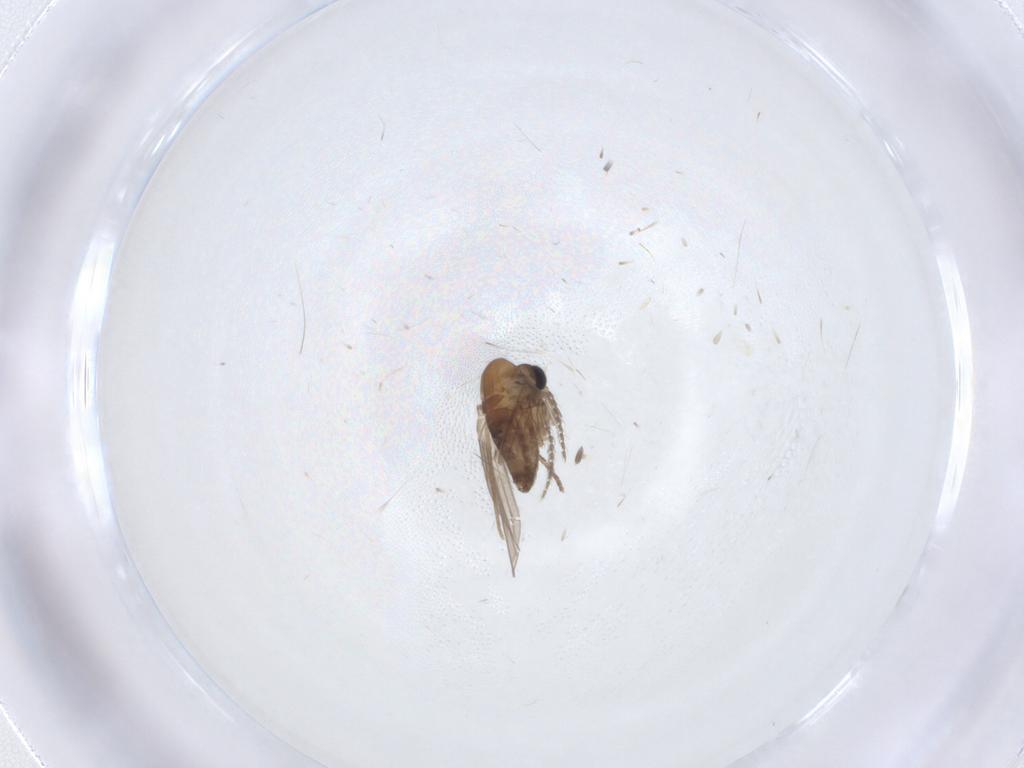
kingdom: Animalia
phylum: Arthropoda
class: Insecta
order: Diptera
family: Cecidomyiidae
